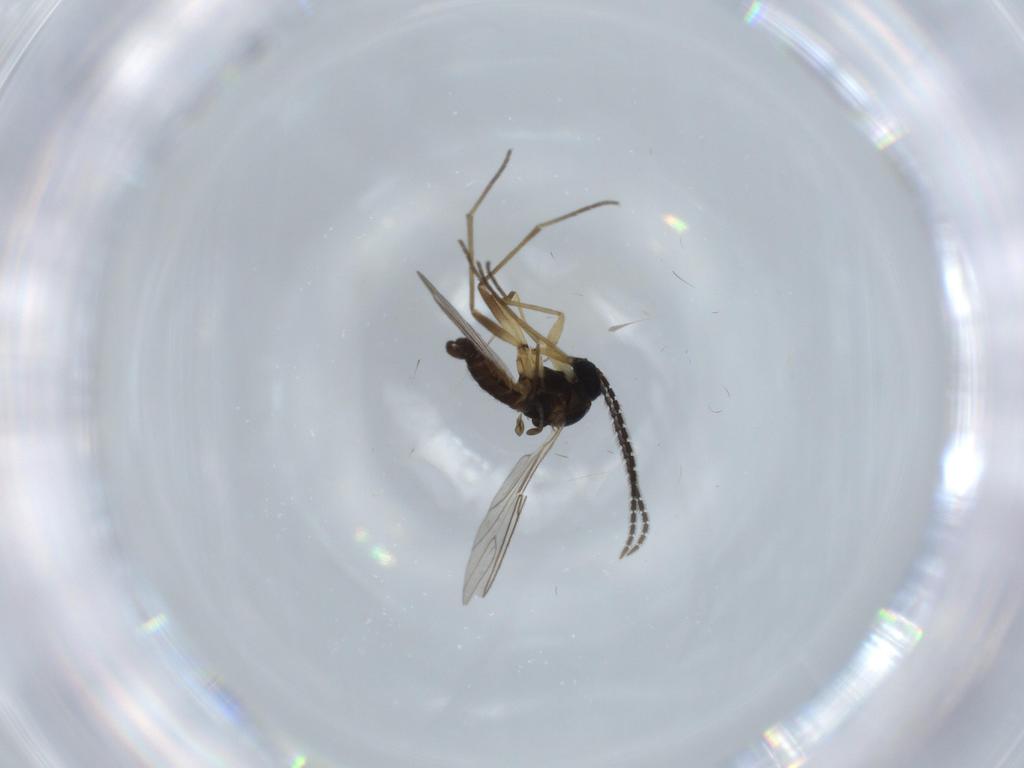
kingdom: Animalia
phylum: Arthropoda
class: Insecta
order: Diptera
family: Sciaridae
